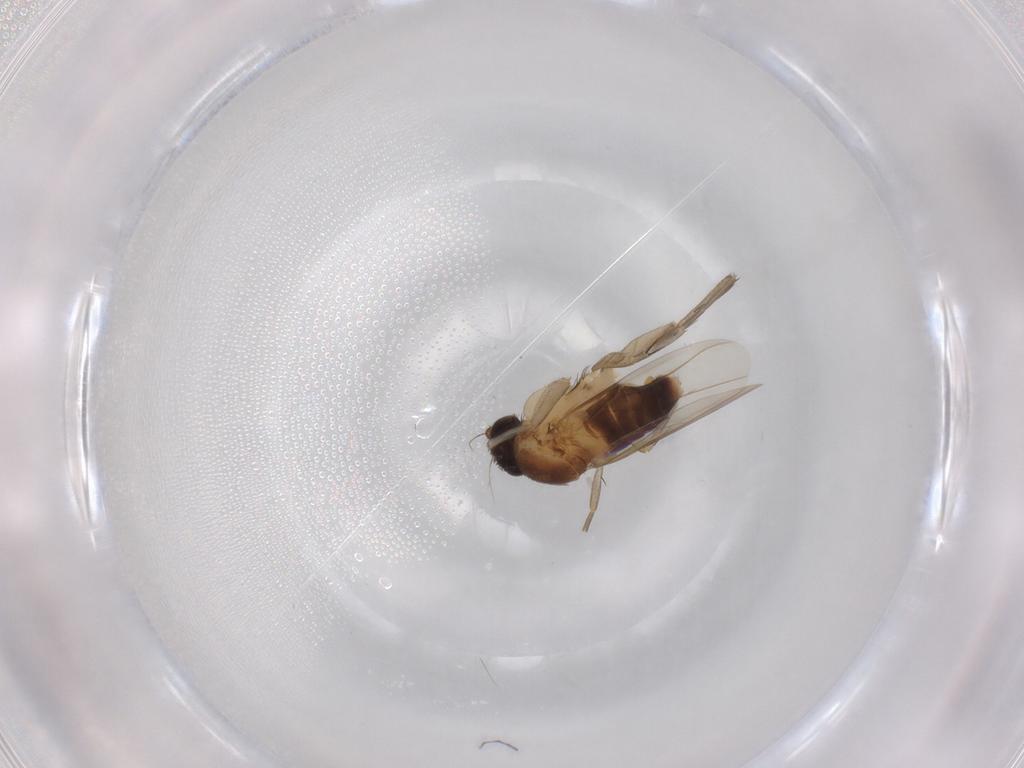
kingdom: Animalia
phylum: Arthropoda
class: Insecta
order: Diptera
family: Phoridae
